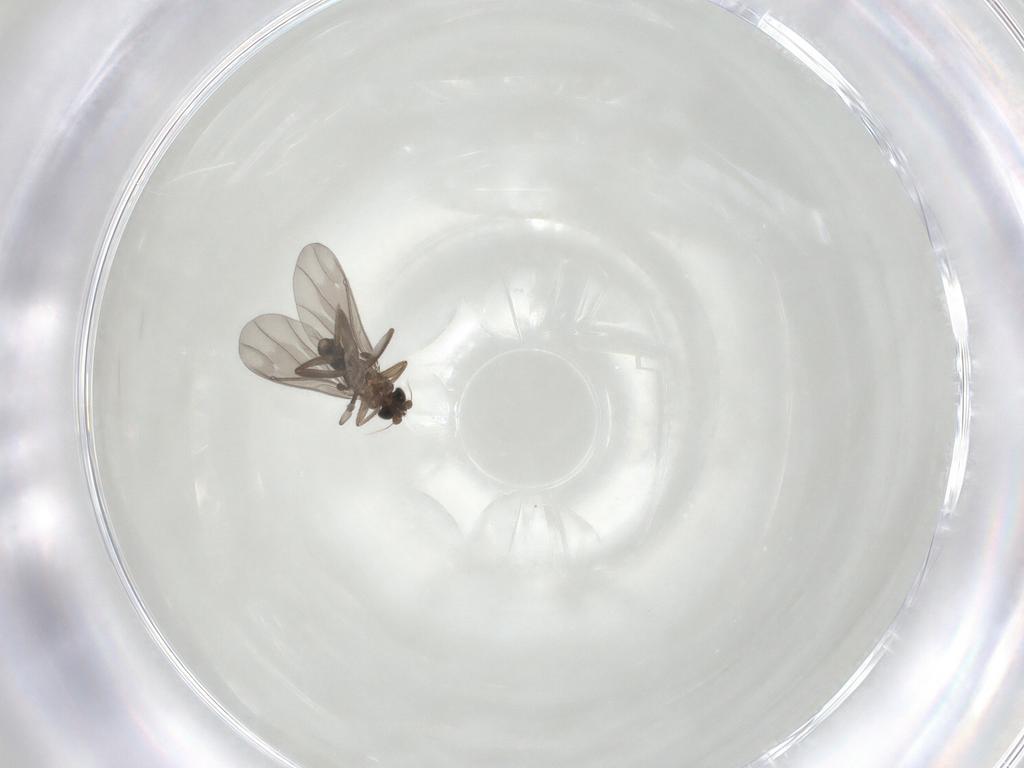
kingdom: Animalia
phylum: Arthropoda
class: Insecta
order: Diptera
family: Phoridae
